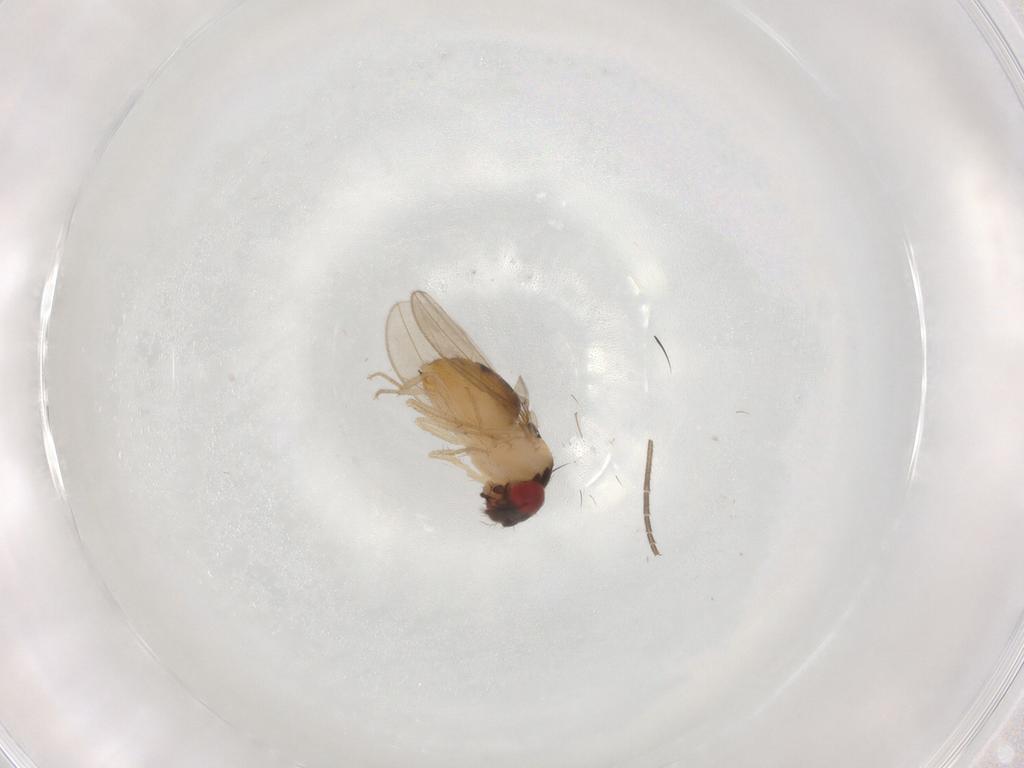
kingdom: Animalia
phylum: Arthropoda
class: Insecta
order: Diptera
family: Drosophilidae
